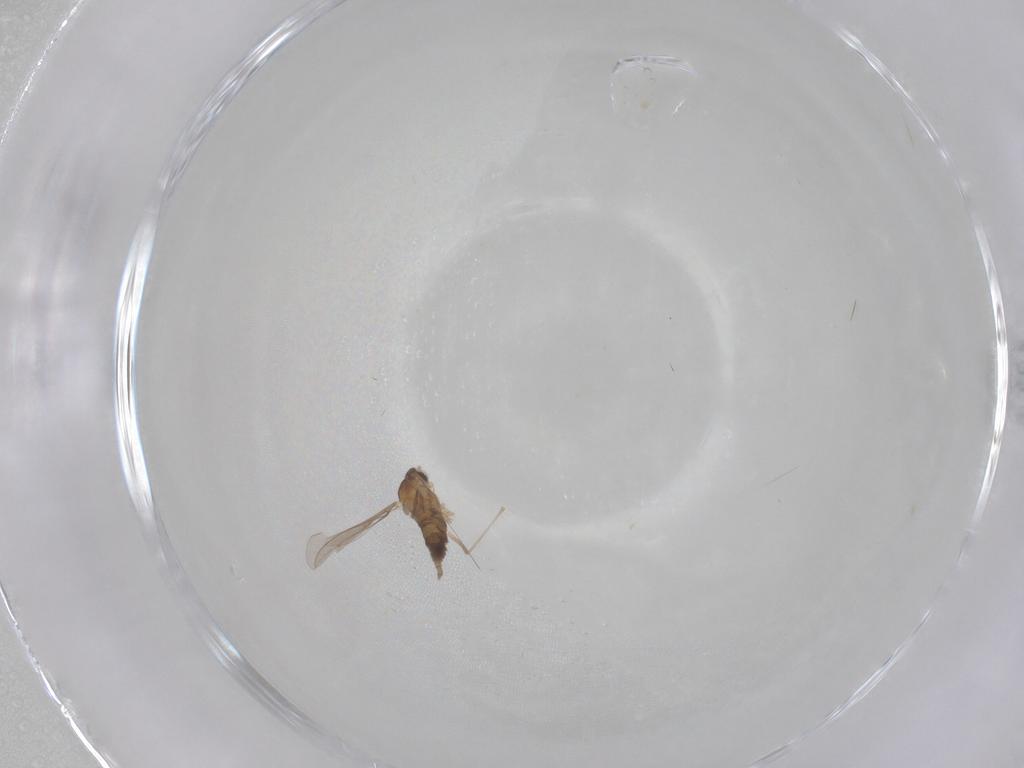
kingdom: Animalia
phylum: Arthropoda
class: Insecta
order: Diptera
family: Cecidomyiidae
